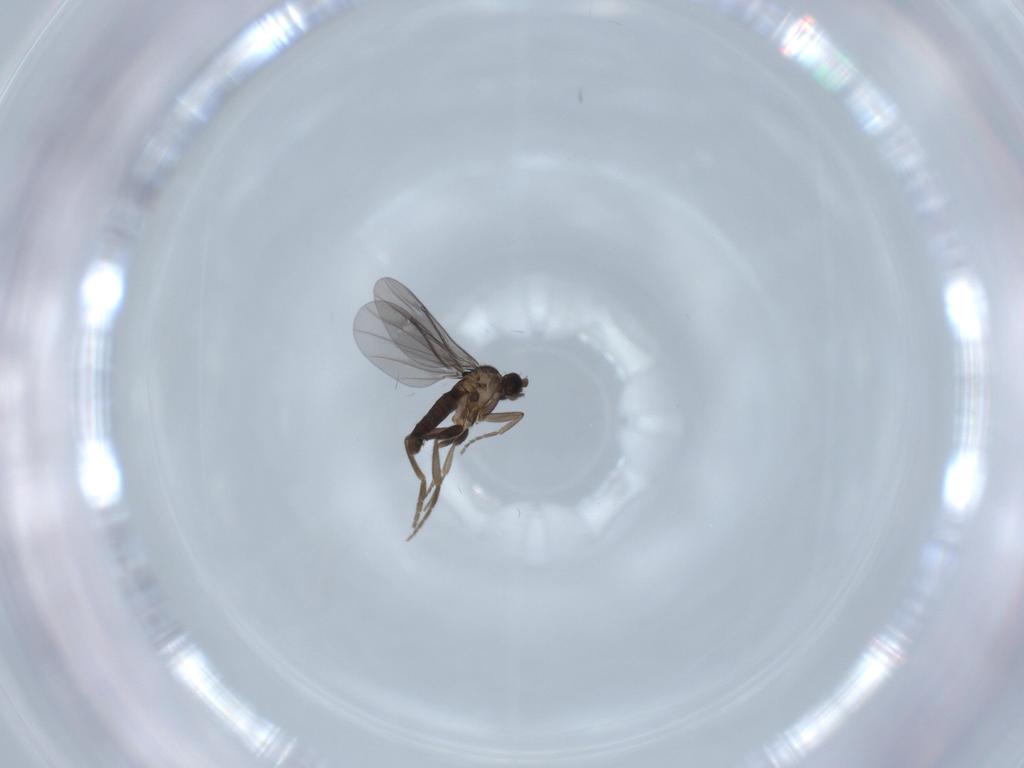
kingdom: Animalia
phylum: Arthropoda
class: Insecta
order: Diptera
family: Phoridae
